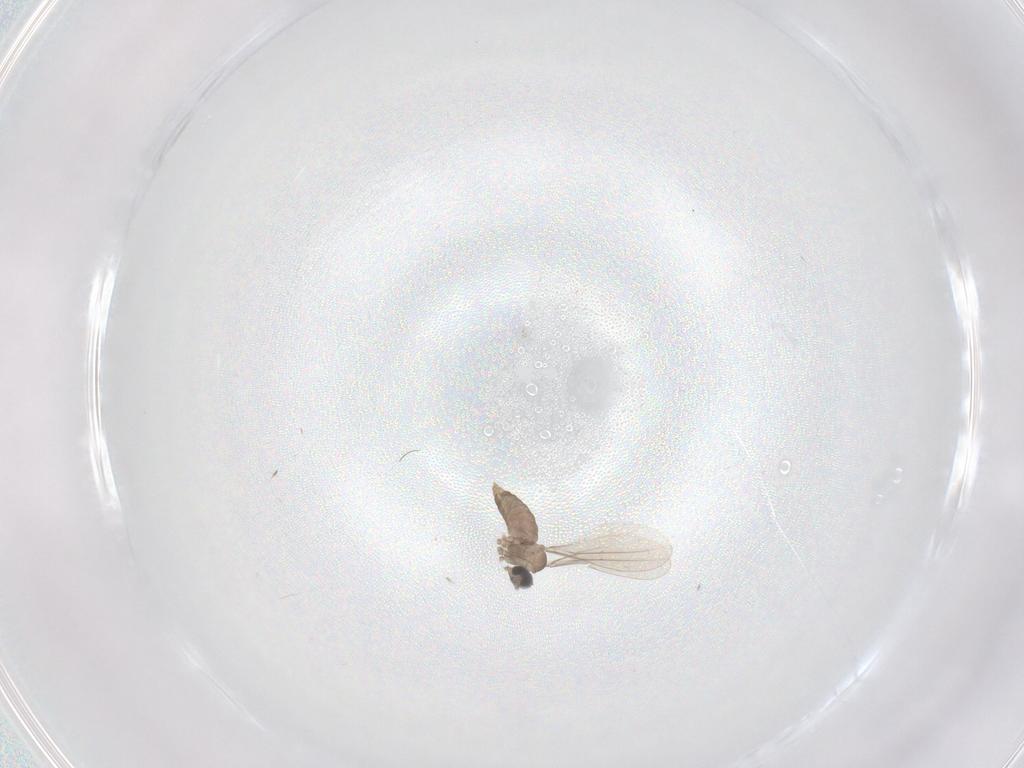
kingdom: Animalia
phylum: Arthropoda
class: Insecta
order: Diptera
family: Cecidomyiidae
